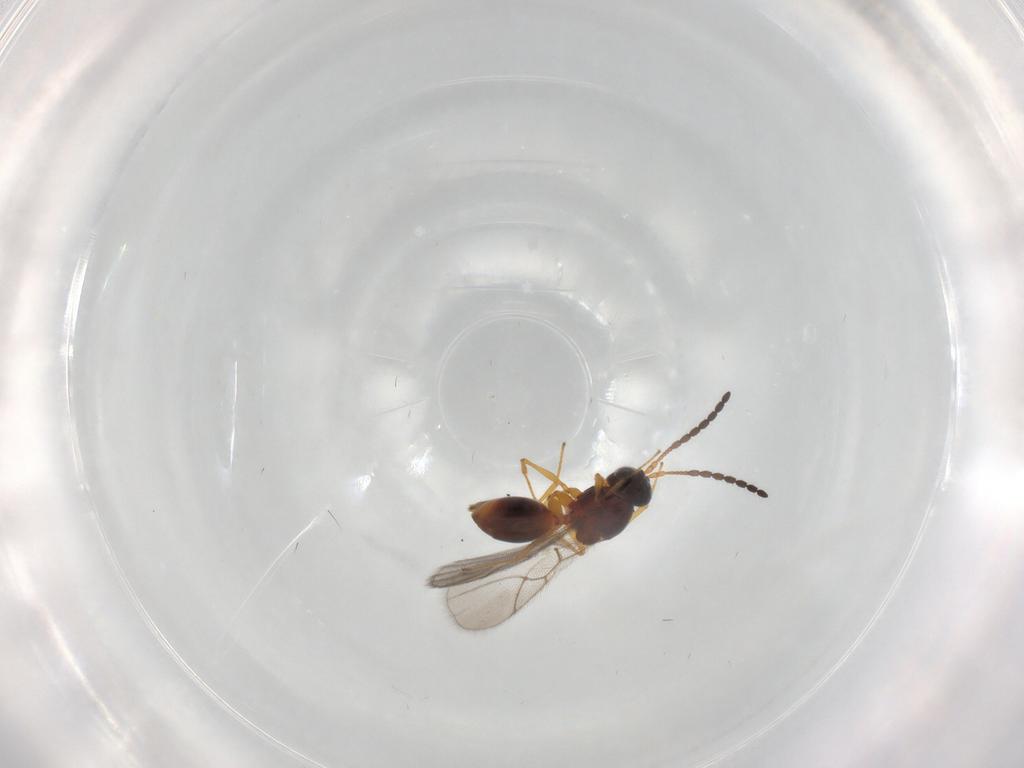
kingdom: Animalia
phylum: Arthropoda
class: Insecta
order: Hymenoptera
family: Figitidae
